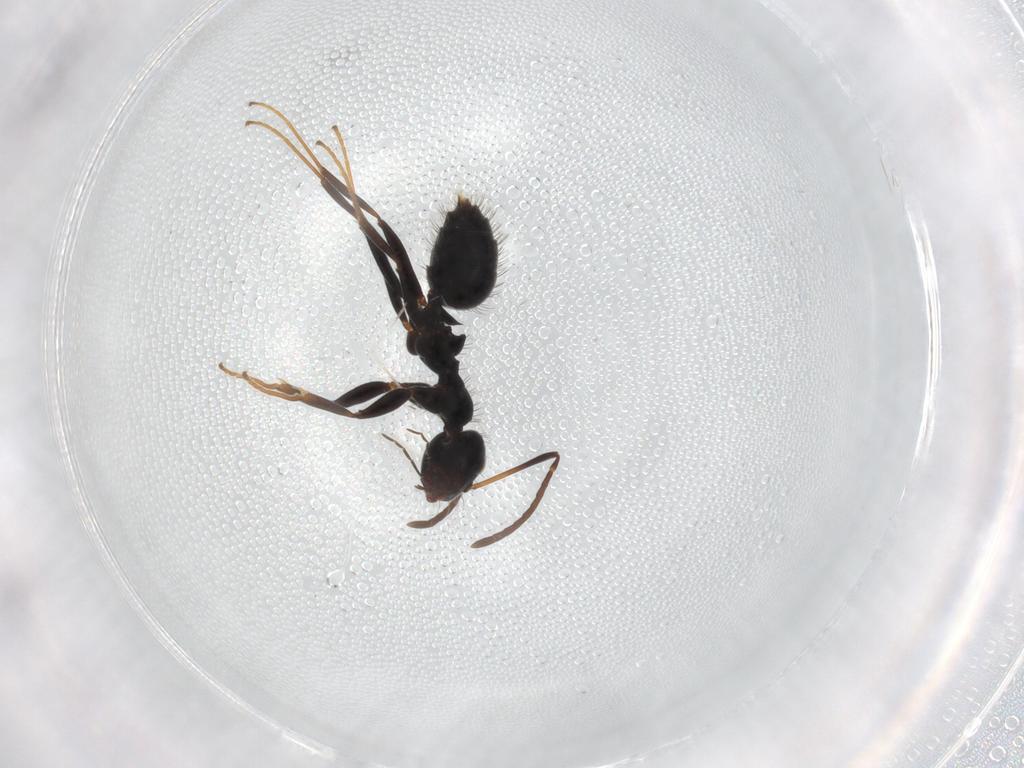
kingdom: Animalia
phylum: Arthropoda
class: Insecta
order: Hymenoptera
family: Formicidae
